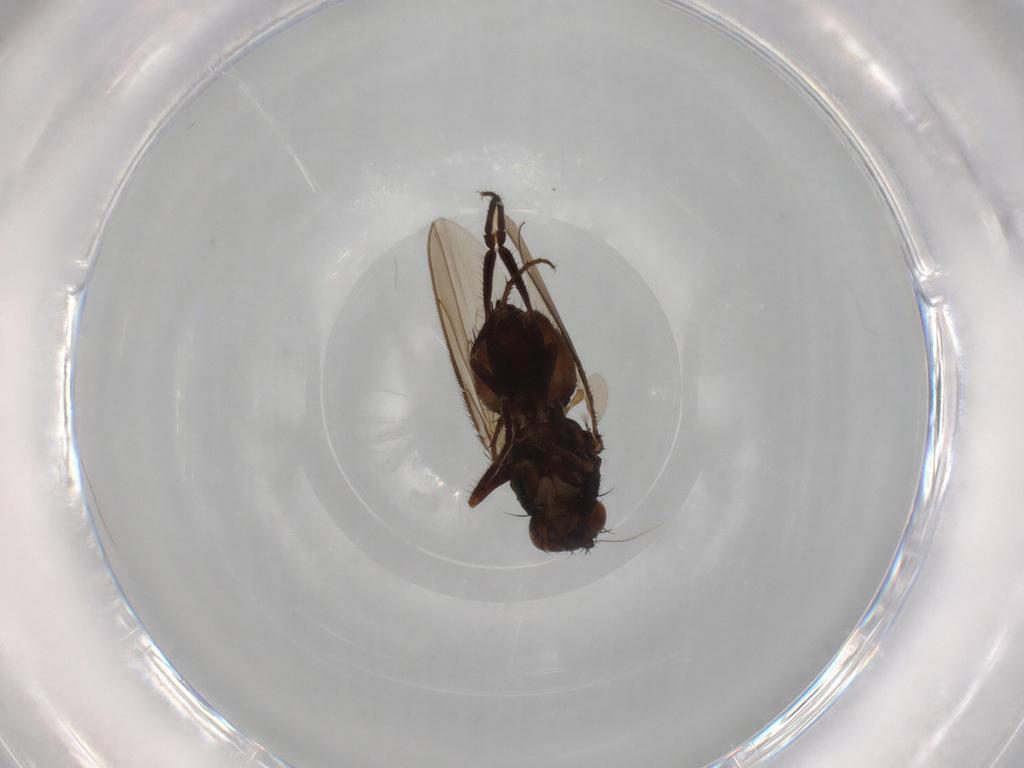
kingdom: Animalia
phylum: Arthropoda
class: Insecta
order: Diptera
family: Sphaeroceridae
